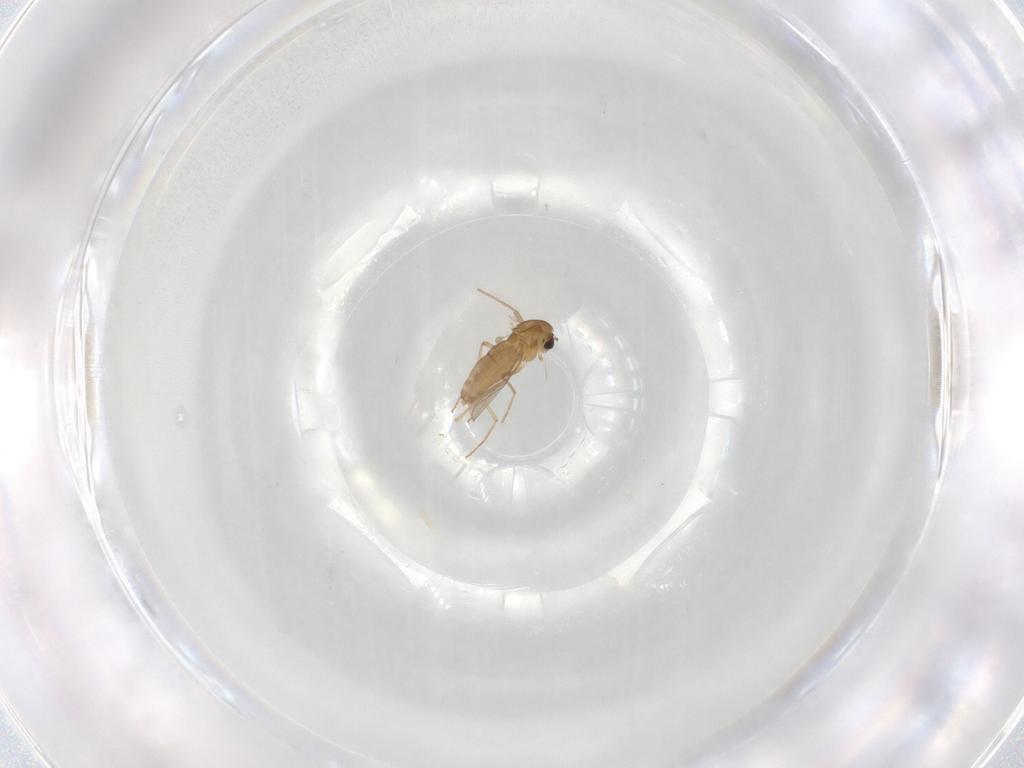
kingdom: Animalia
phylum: Arthropoda
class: Insecta
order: Diptera
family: Chironomidae
